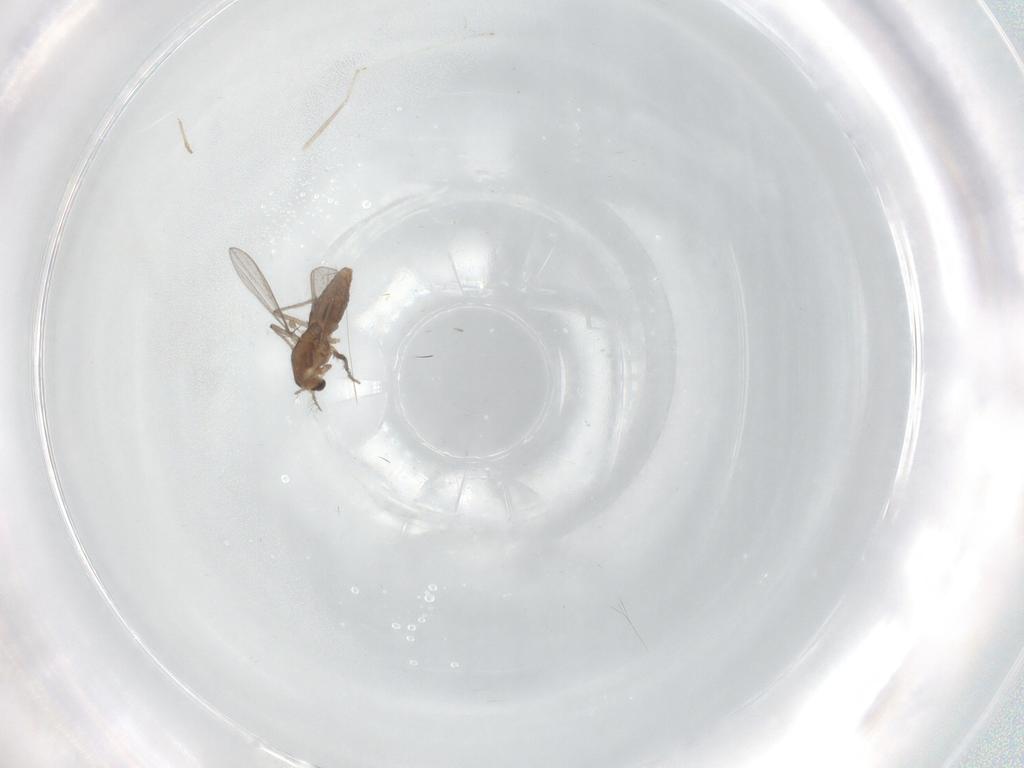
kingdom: Animalia
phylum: Arthropoda
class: Insecta
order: Diptera
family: Chironomidae
